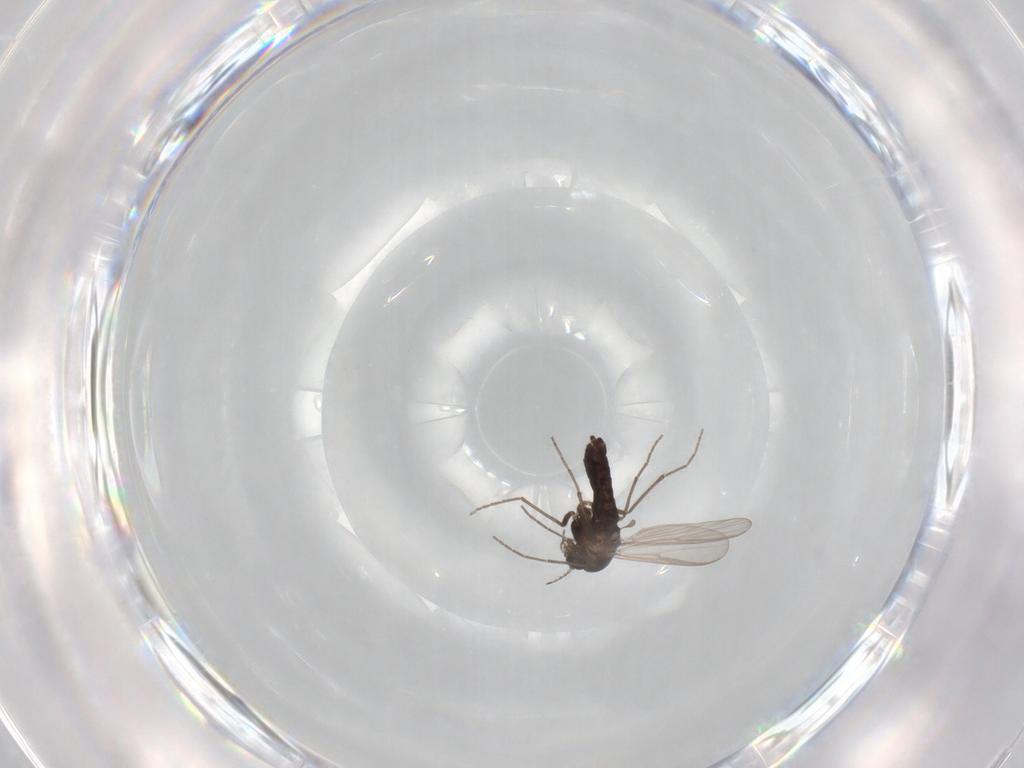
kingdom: Animalia
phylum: Arthropoda
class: Insecta
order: Diptera
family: Chironomidae
